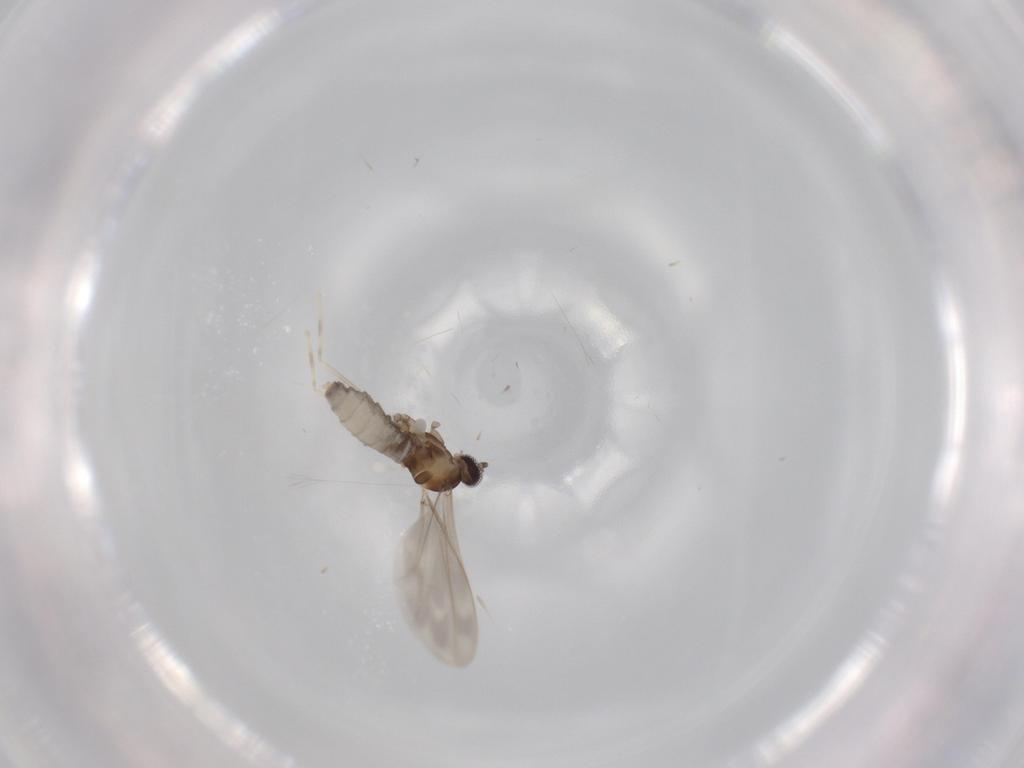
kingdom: Animalia
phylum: Arthropoda
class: Insecta
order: Diptera
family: Cecidomyiidae
